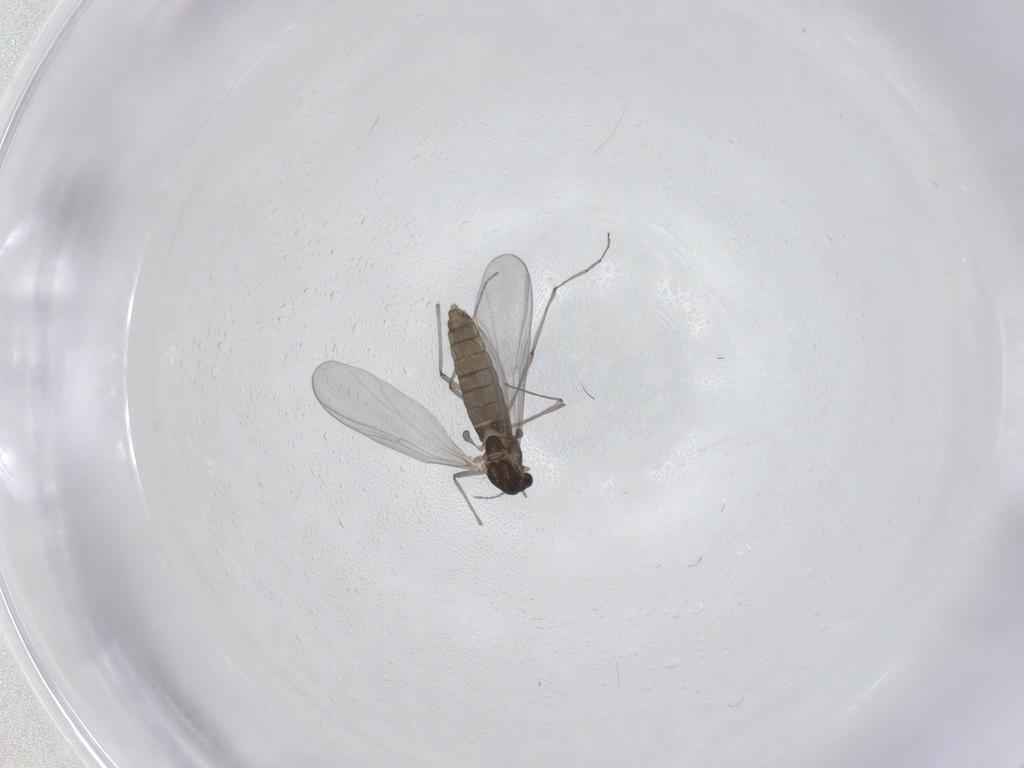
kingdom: Animalia
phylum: Arthropoda
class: Insecta
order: Diptera
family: Chironomidae
